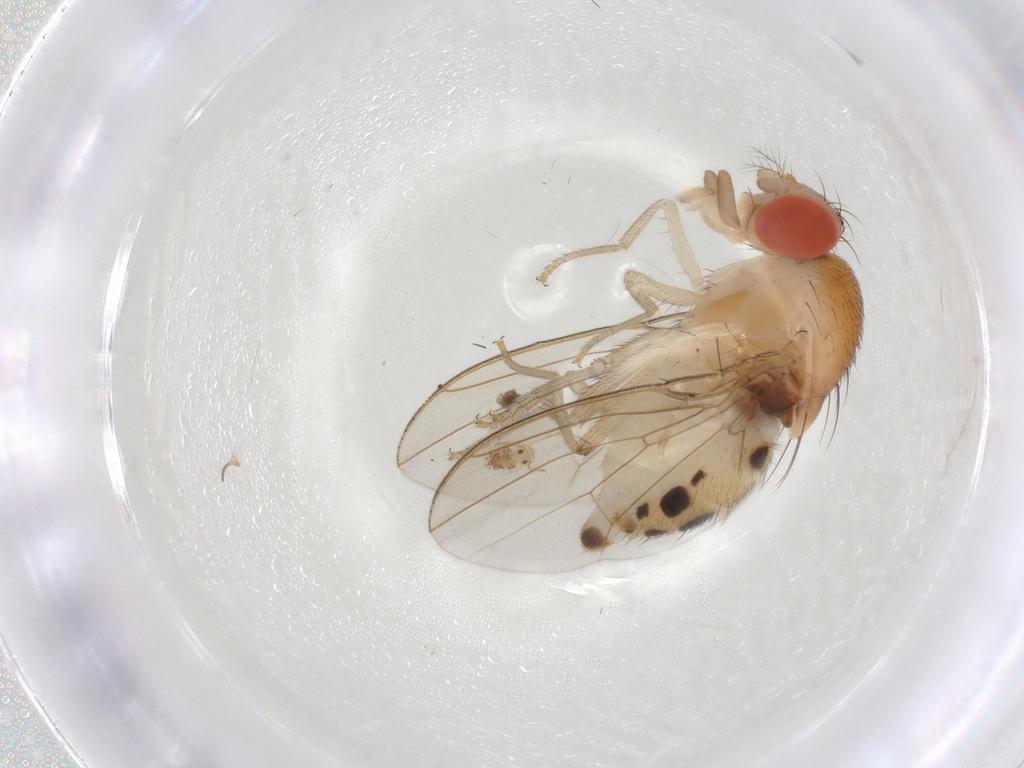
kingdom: Animalia
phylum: Arthropoda
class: Insecta
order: Diptera
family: Drosophilidae
